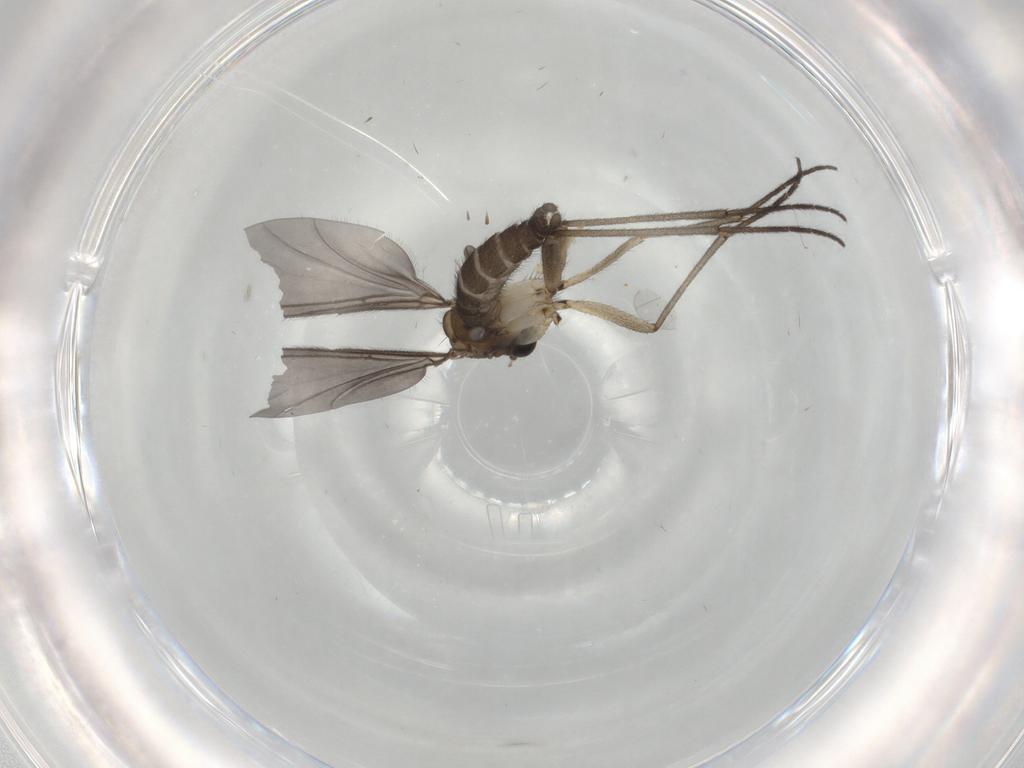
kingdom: Animalia
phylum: Arthropoda
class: Insecta
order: Diptera
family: Sciaridae
